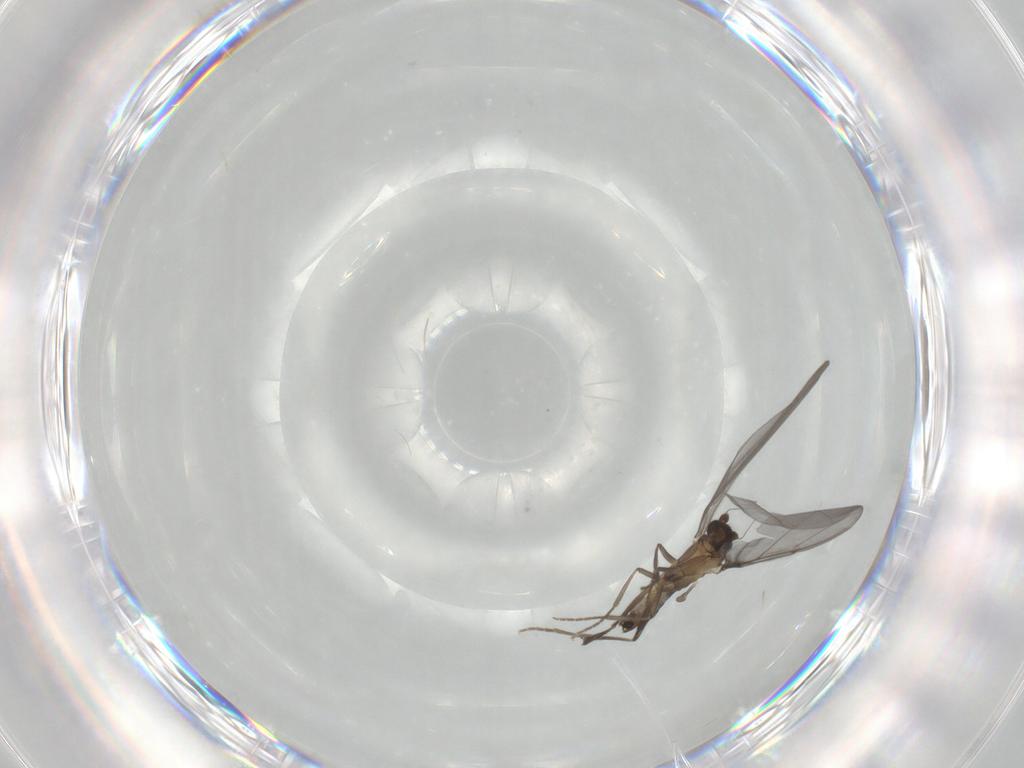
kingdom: Animalia
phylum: Arthropoda
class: Insecta
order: Diptera
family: Phoridae
